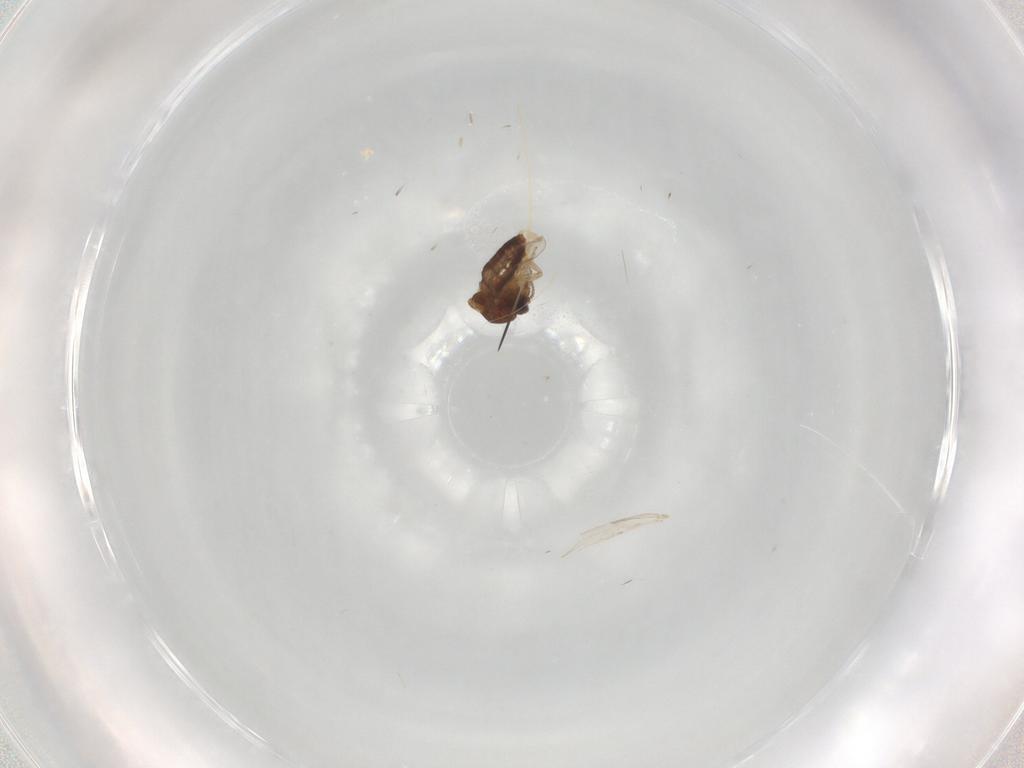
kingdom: Animalia
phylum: Arthropoda
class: Insecta
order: Diptera
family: Ceratopogonidae
